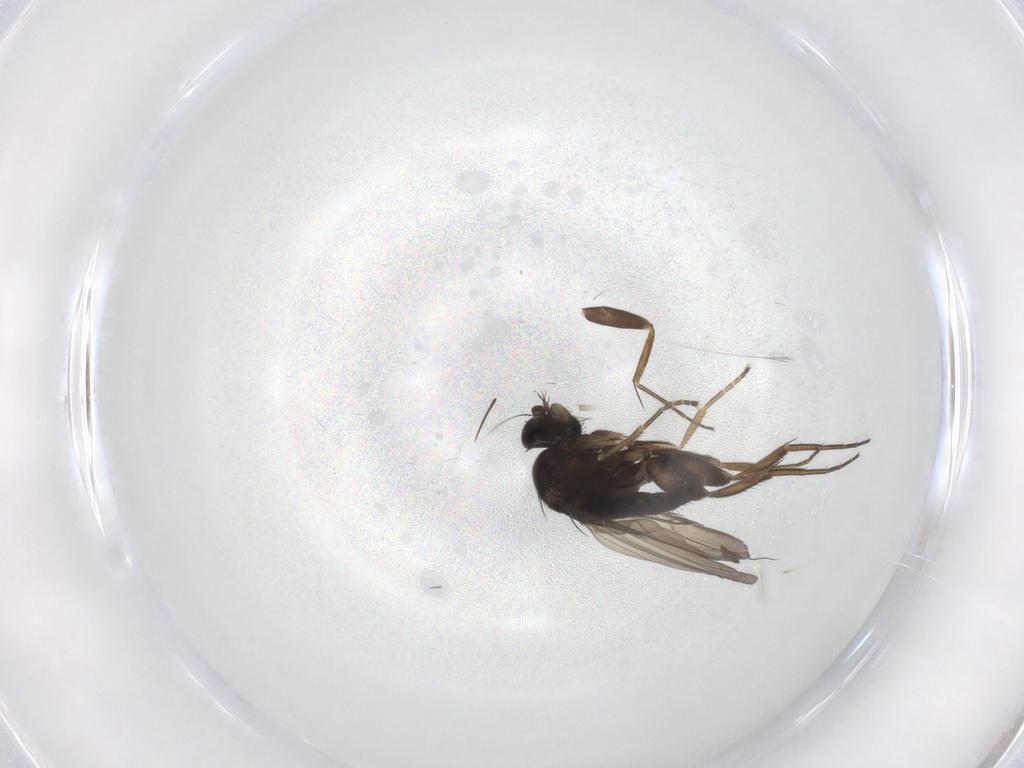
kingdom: Animalia
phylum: Arthropoda
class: Insecta
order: Diptera
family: Phoridae
